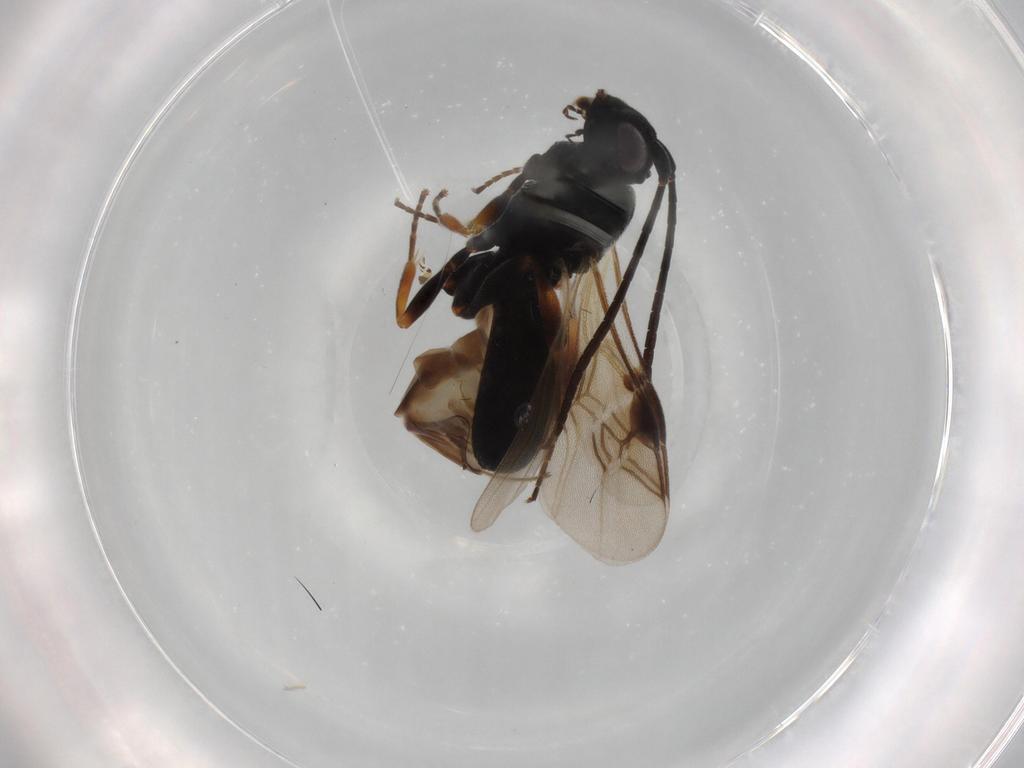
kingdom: Animalia
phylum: Arthropoda
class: Insecta
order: Hymenoptera
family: Braconidae
